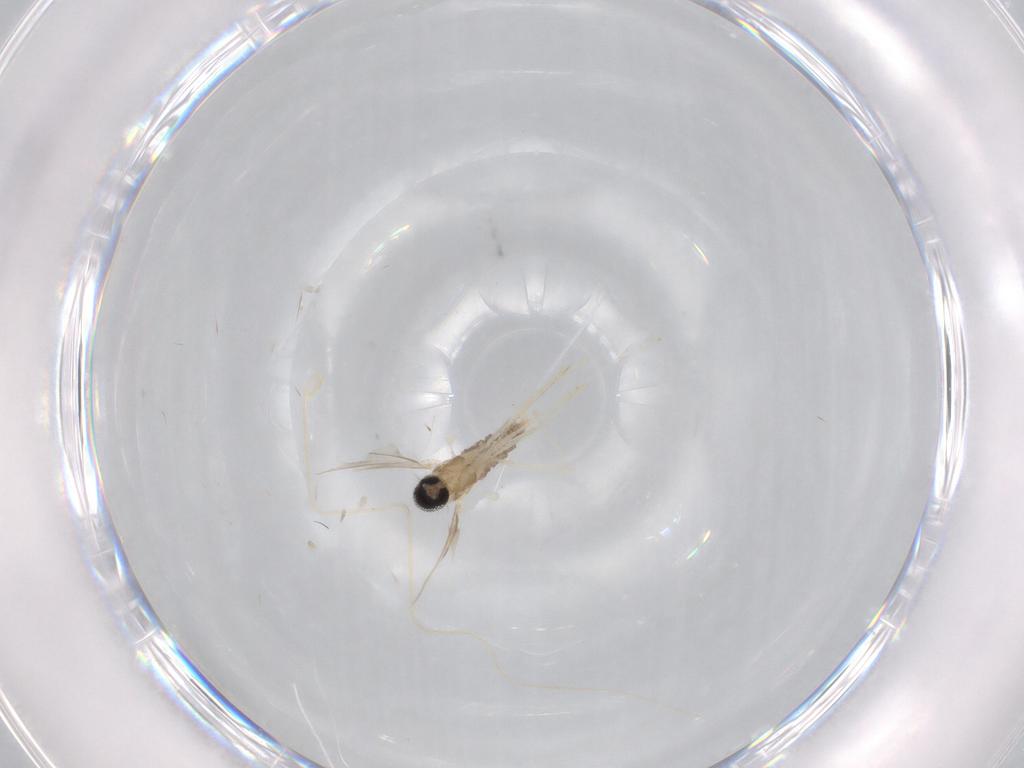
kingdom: Animalia
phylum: Arthropoda
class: Insecta
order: Diptera
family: Cecidomyiidae
